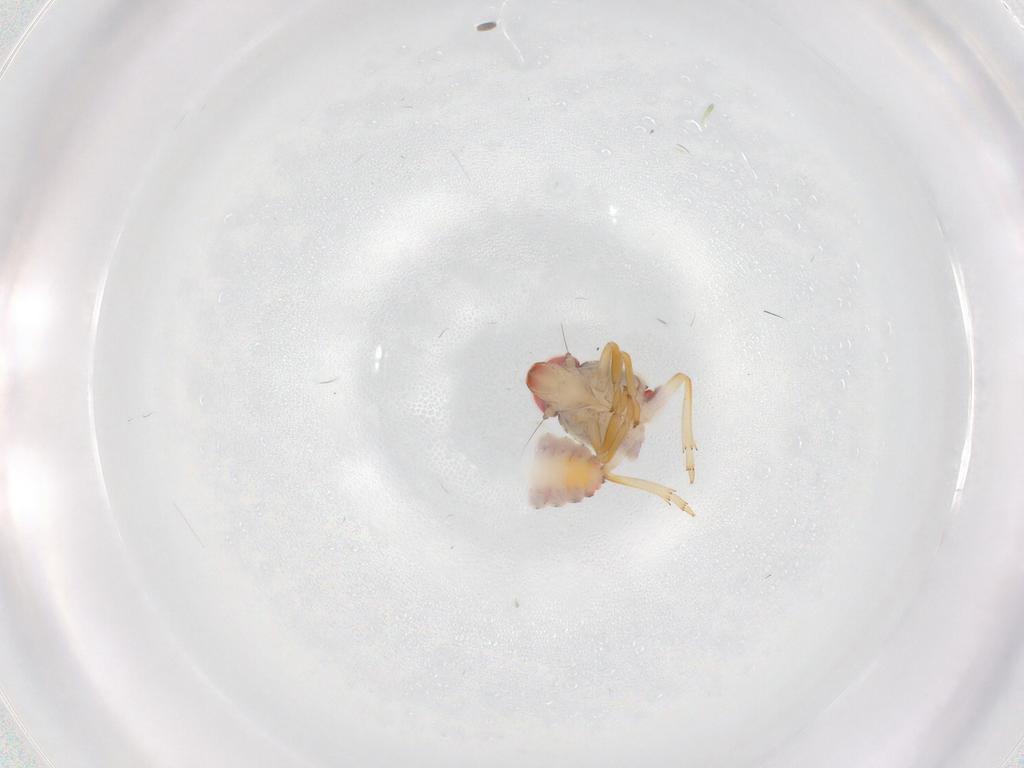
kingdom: Animalia
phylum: Arthropoda
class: Insecta
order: Hemiptera
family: Issidae
